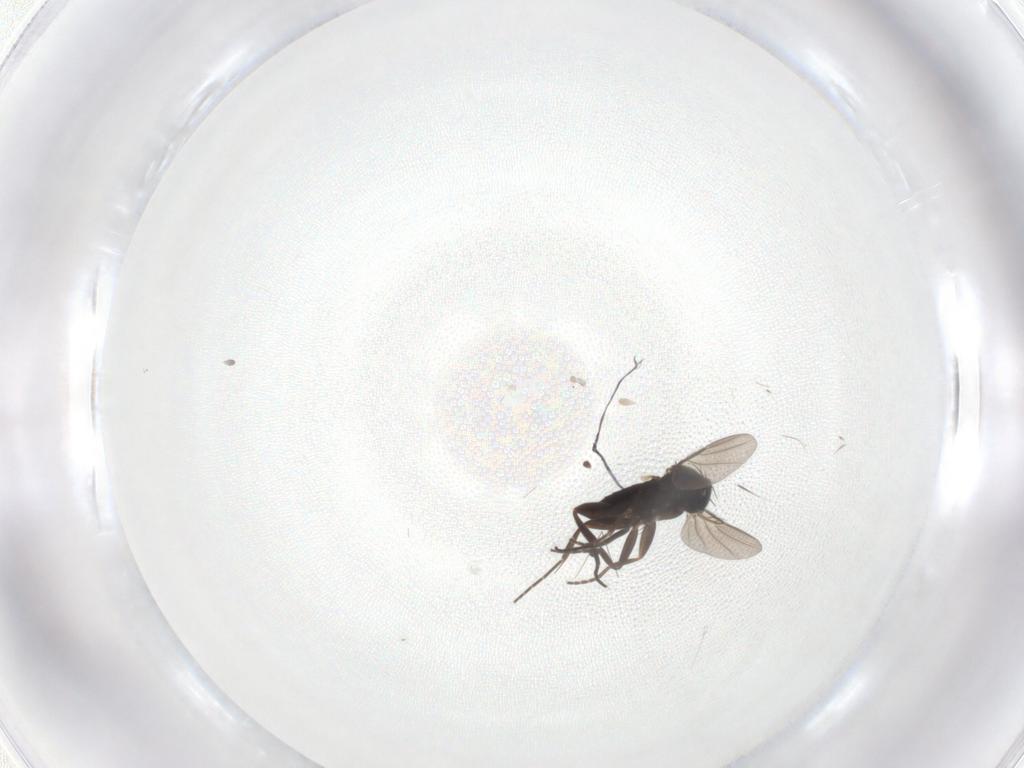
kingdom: Animalia
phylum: Arthropoda
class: Insecta
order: Diptera
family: Phoridae
